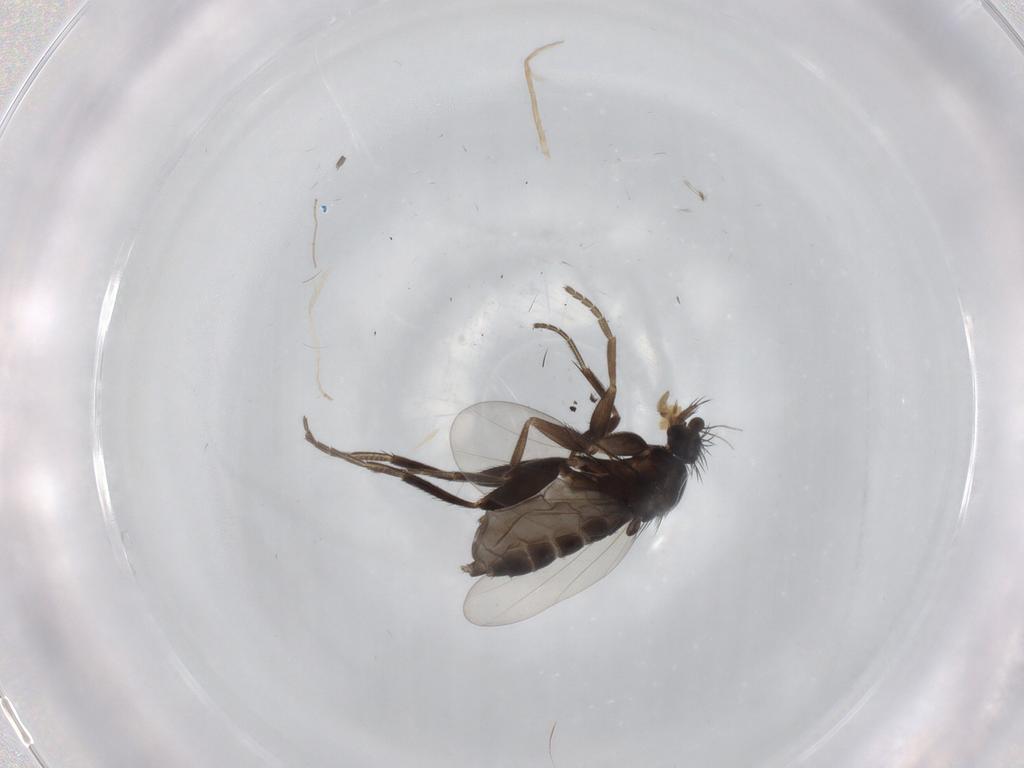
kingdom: Animalia
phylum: Arthropoda
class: Insecta
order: Diptera
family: Phoridae
